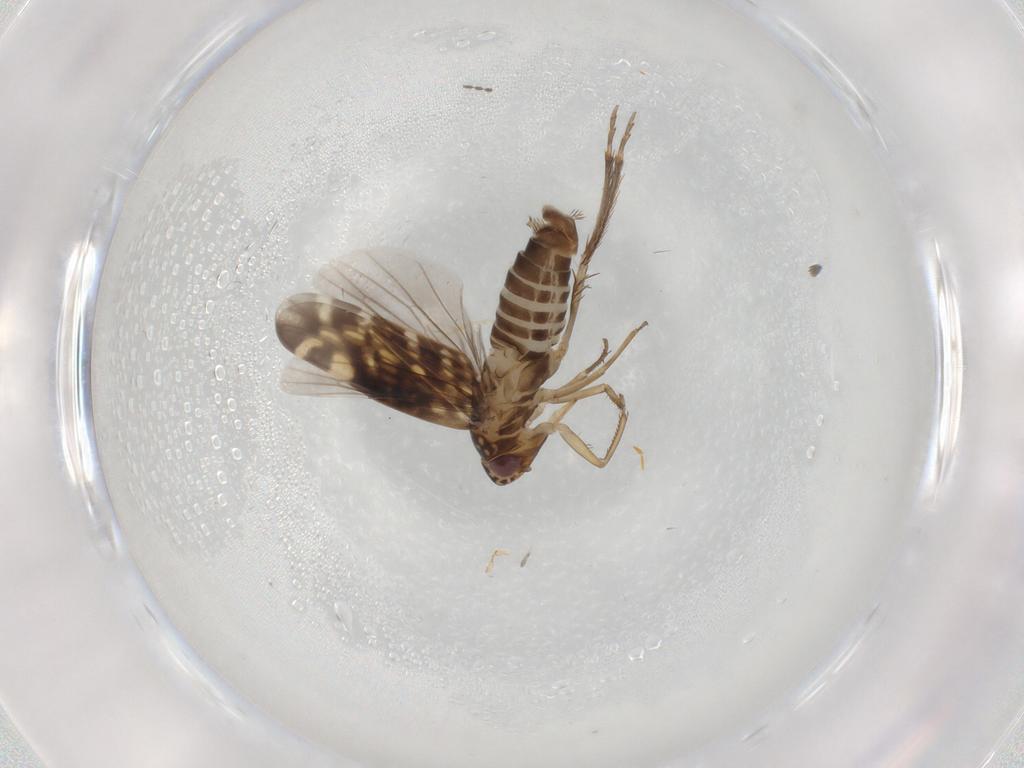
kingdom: Animalia
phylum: Arthropoda
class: Insecta
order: Hemiptera
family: Cicadellidae
